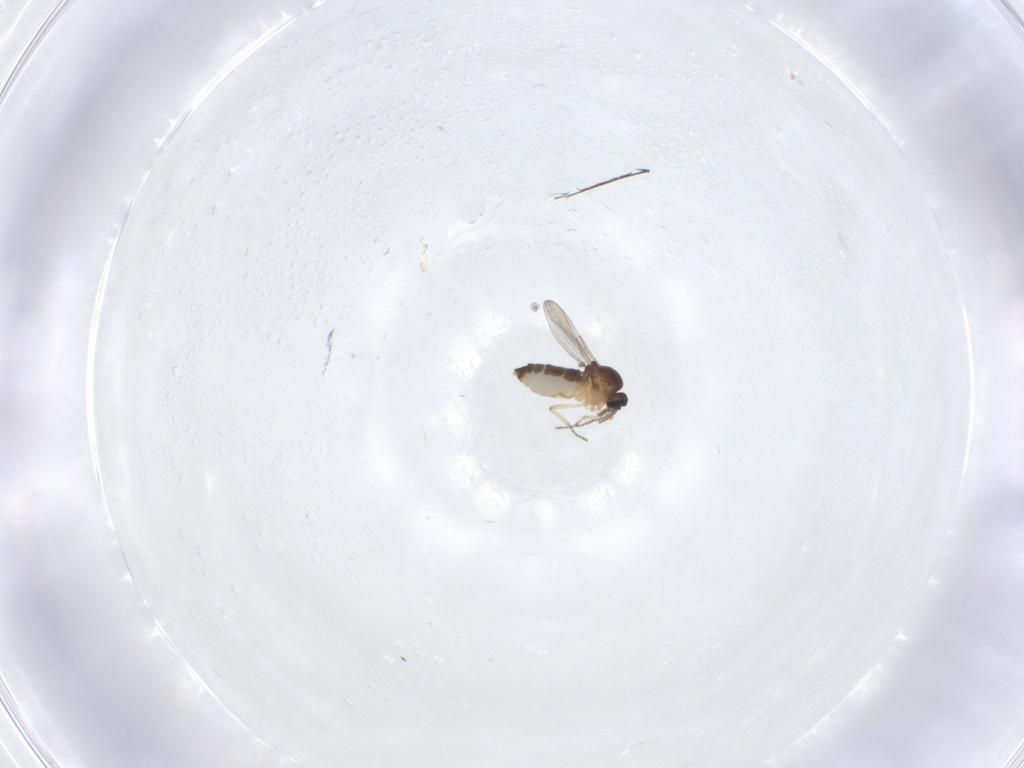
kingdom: Animalia
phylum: Arthropoda
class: Insecta
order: Diptera
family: Ceratopogonidae
